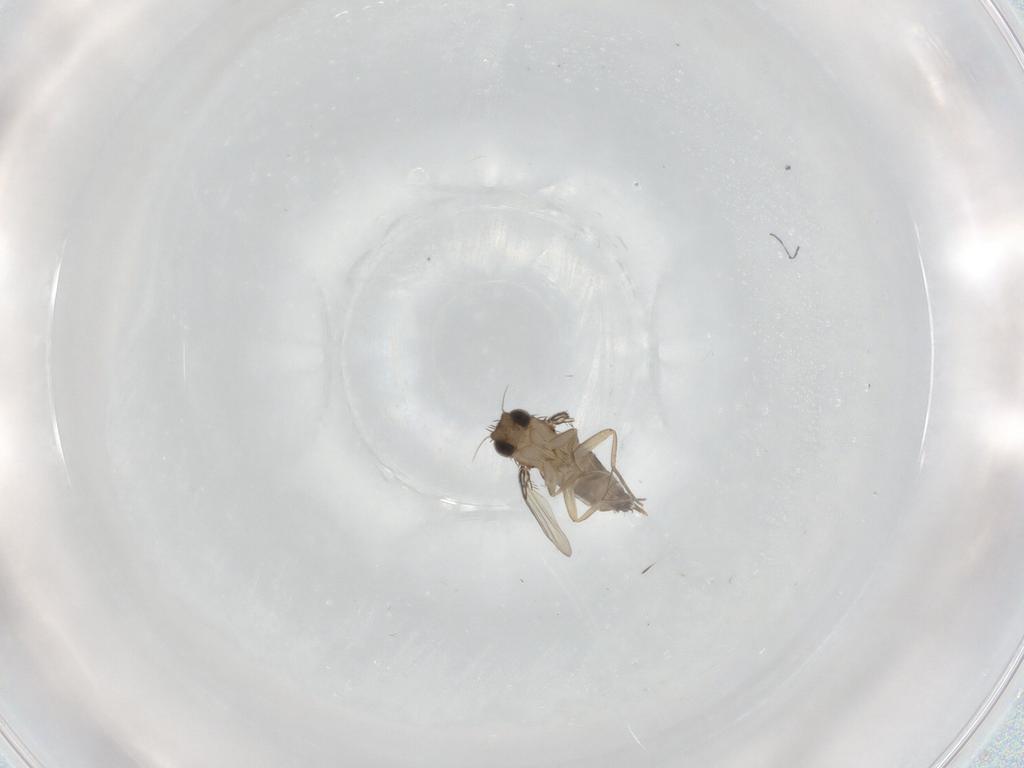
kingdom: Animalia
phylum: Arthropoda
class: Insecta
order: Diptera
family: Phoridae
